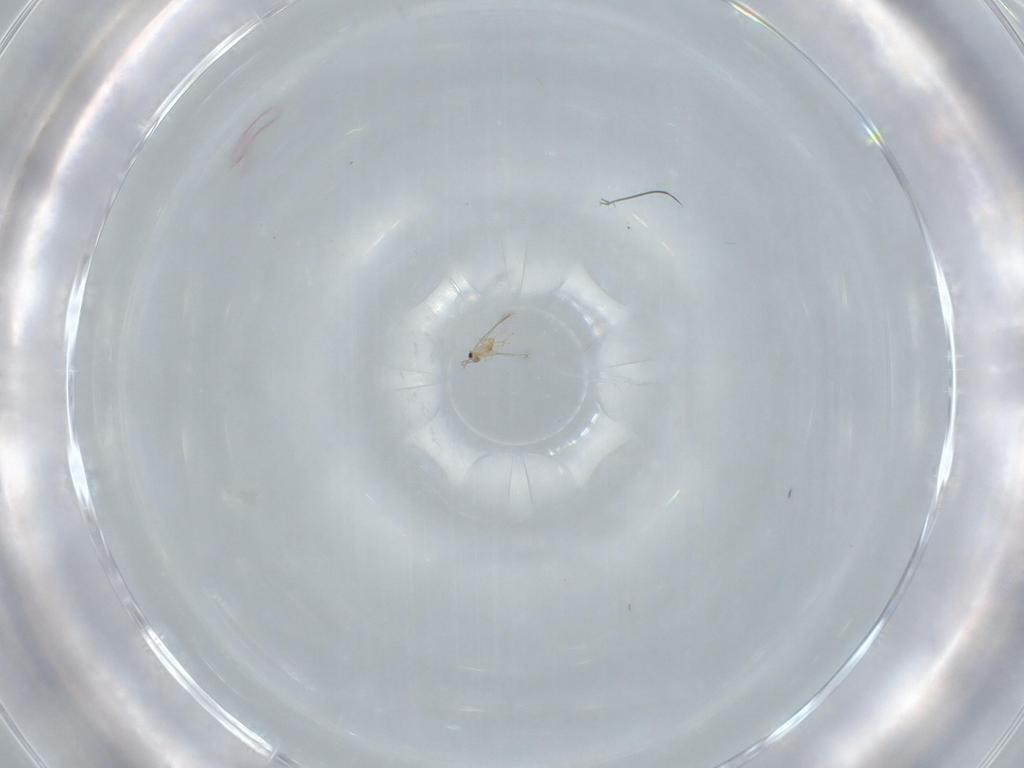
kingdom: Animalia
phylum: Arthropoda
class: Insecta
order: Hymenoptera
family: Mymaridae
